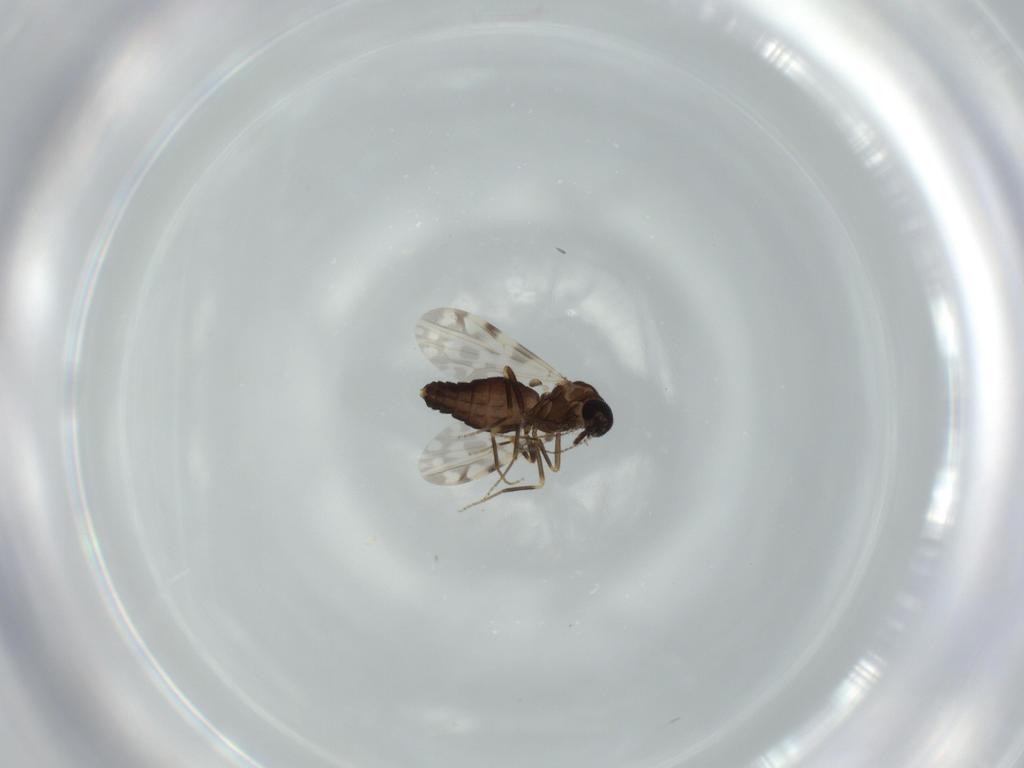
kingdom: Animalia
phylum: Arthropoda
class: Insecta
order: Diptera
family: Ceratopogonidae
